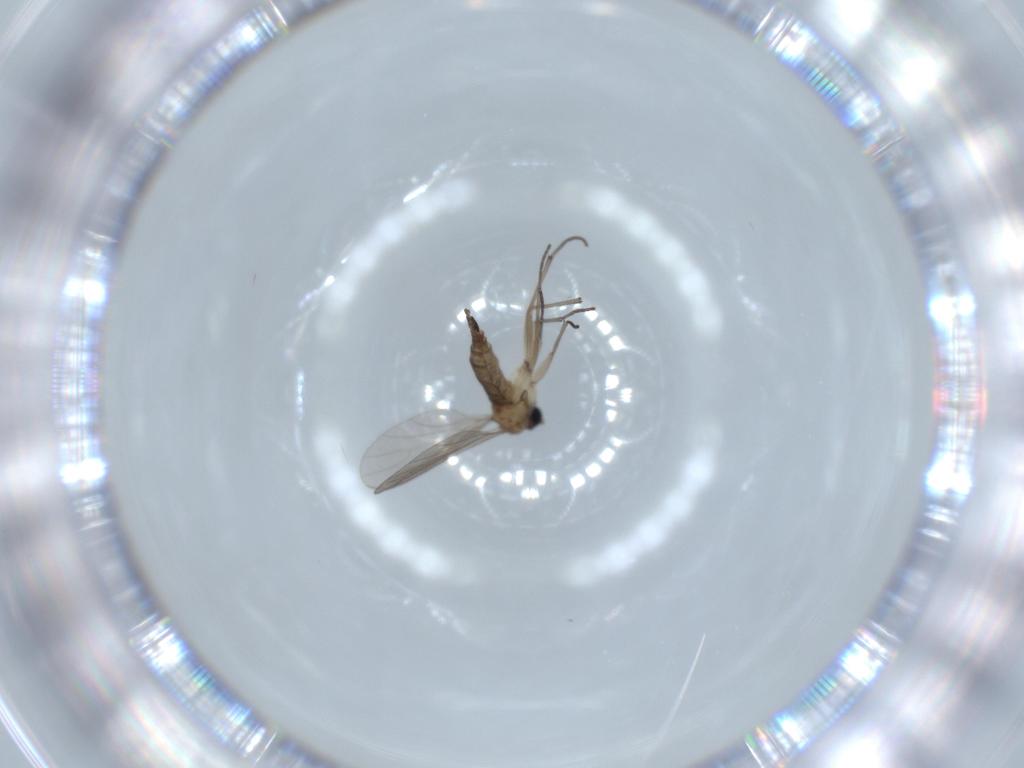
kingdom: Animalia
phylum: Arthropoda
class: Insecta
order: Diptera
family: Sciaridae
